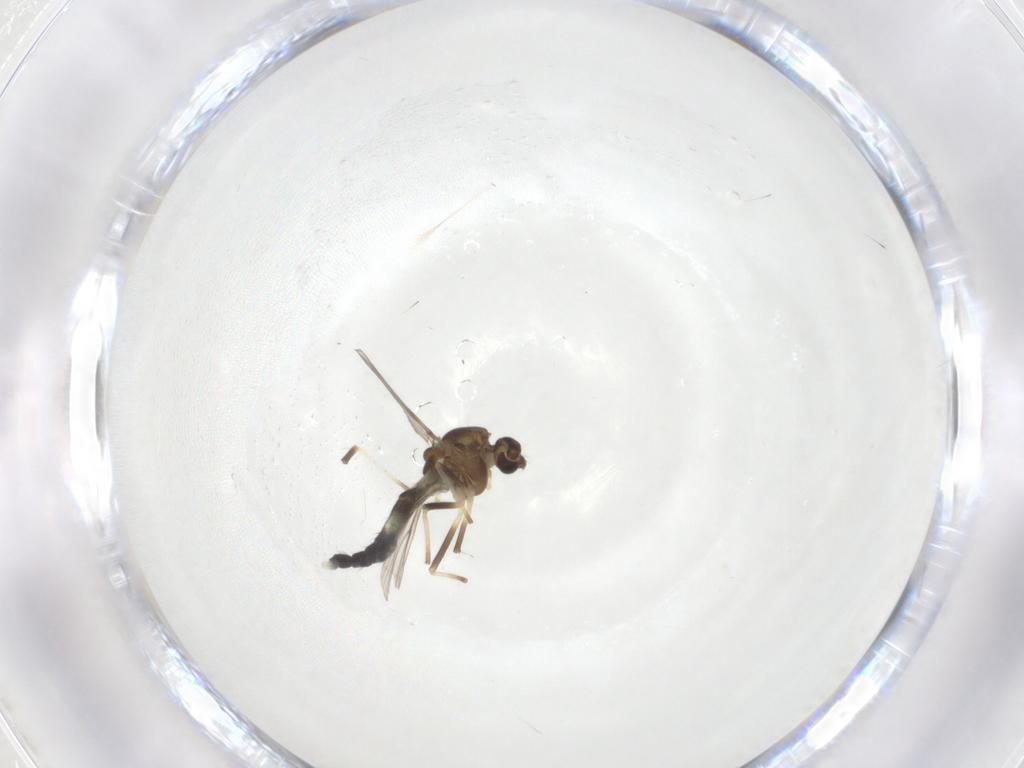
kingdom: Animalia
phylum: Arthropoda
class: Insecta
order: Diptera
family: Chironomidae
